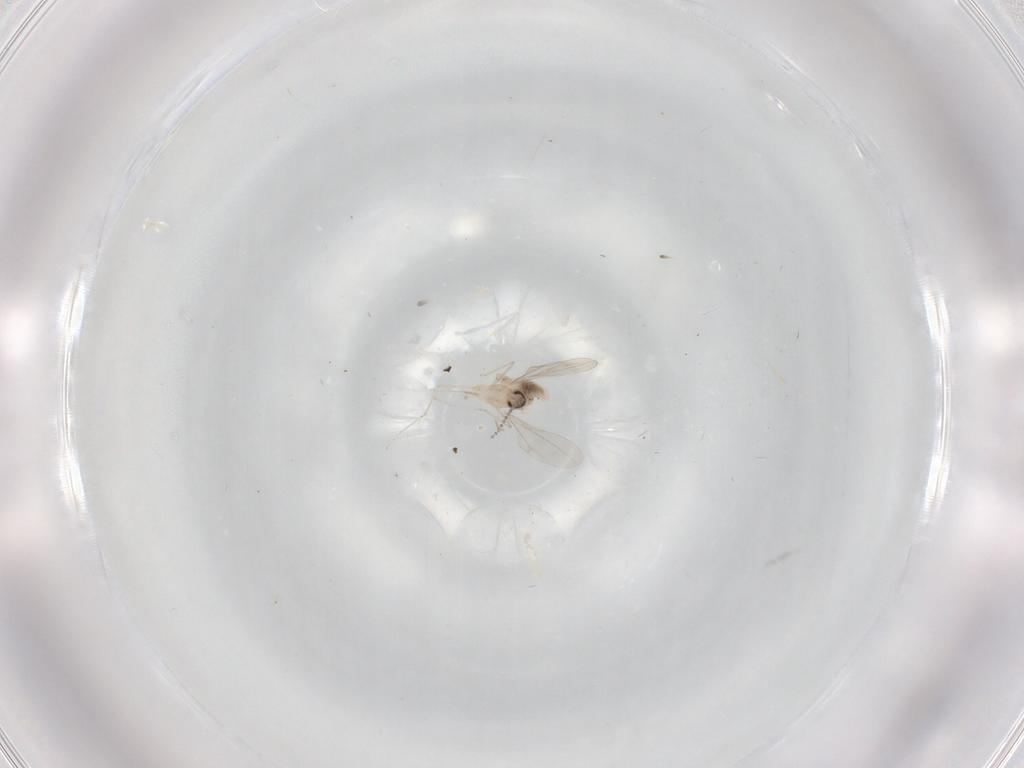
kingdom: Animalia
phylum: Arthropoda
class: Insecta
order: Diptera
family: Cecidomyiidae
